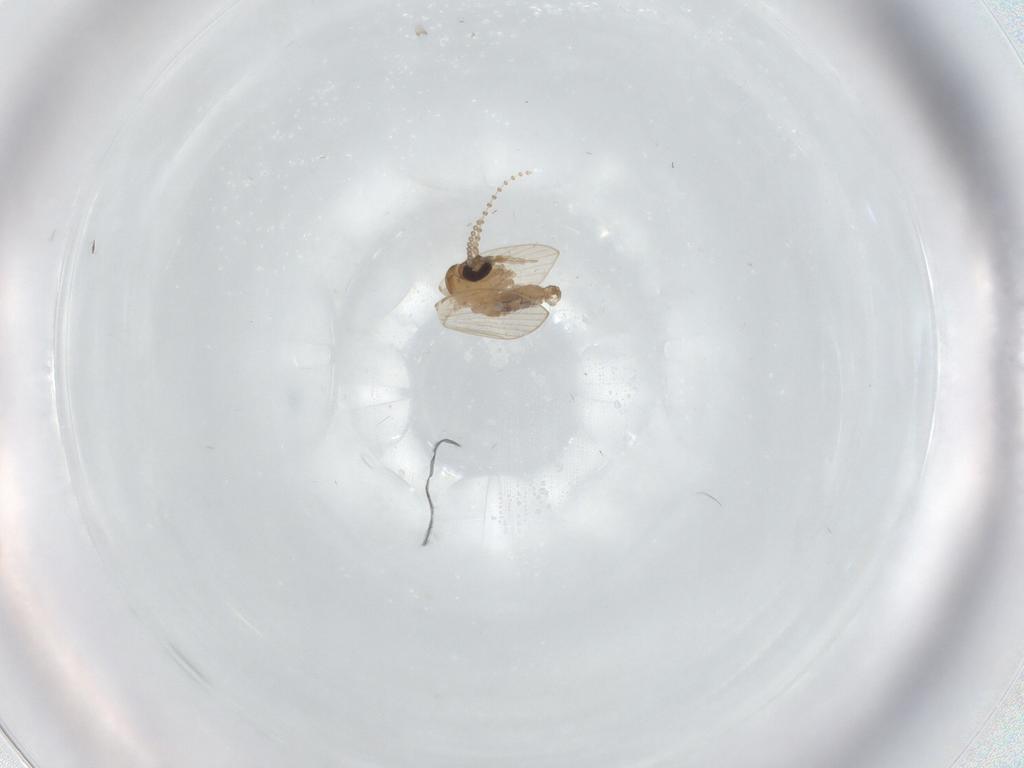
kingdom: Animalia
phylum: Arthropoda
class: Insecta
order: Diptera
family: Psychodidae
